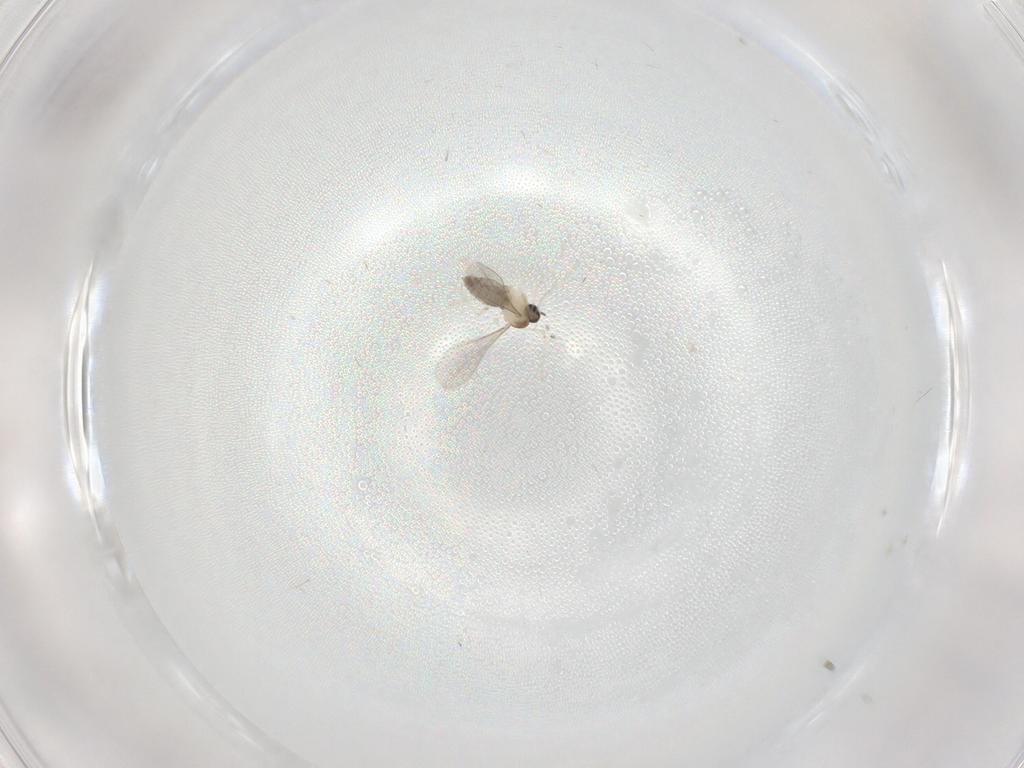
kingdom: Animalia
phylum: Arthropoda
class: Insecta
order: Diptera
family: Cecidomyiidae
